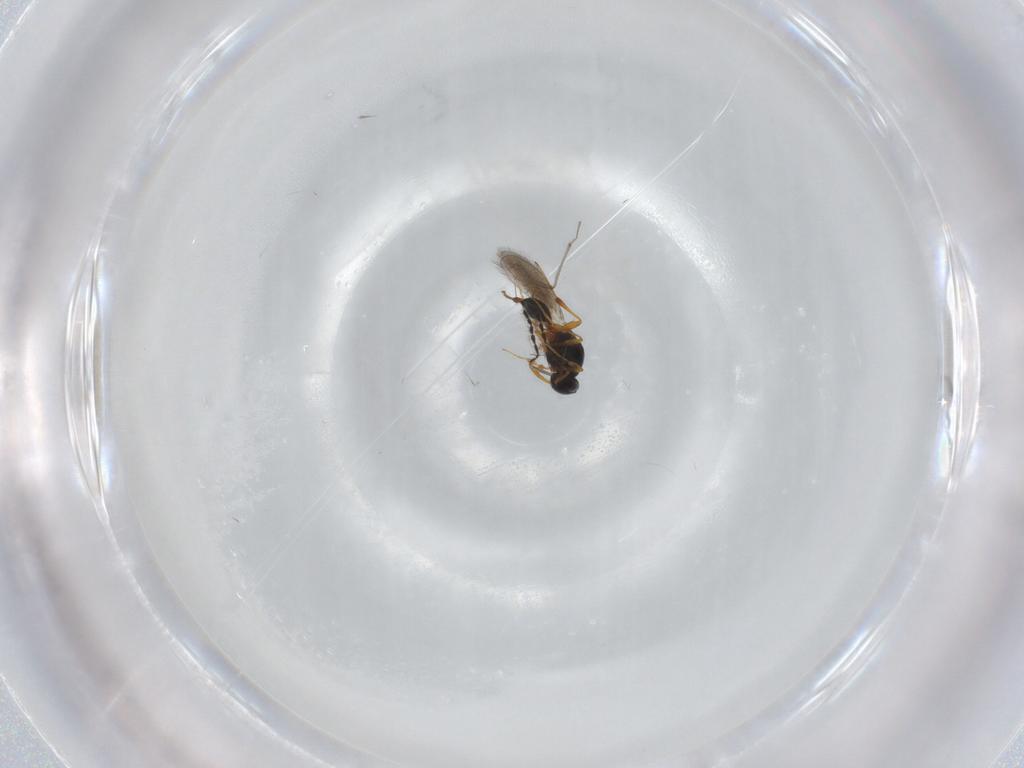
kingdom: Animalia
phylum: Arthropoda
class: Insecta
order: Hymenoptera
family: Platygastridae
